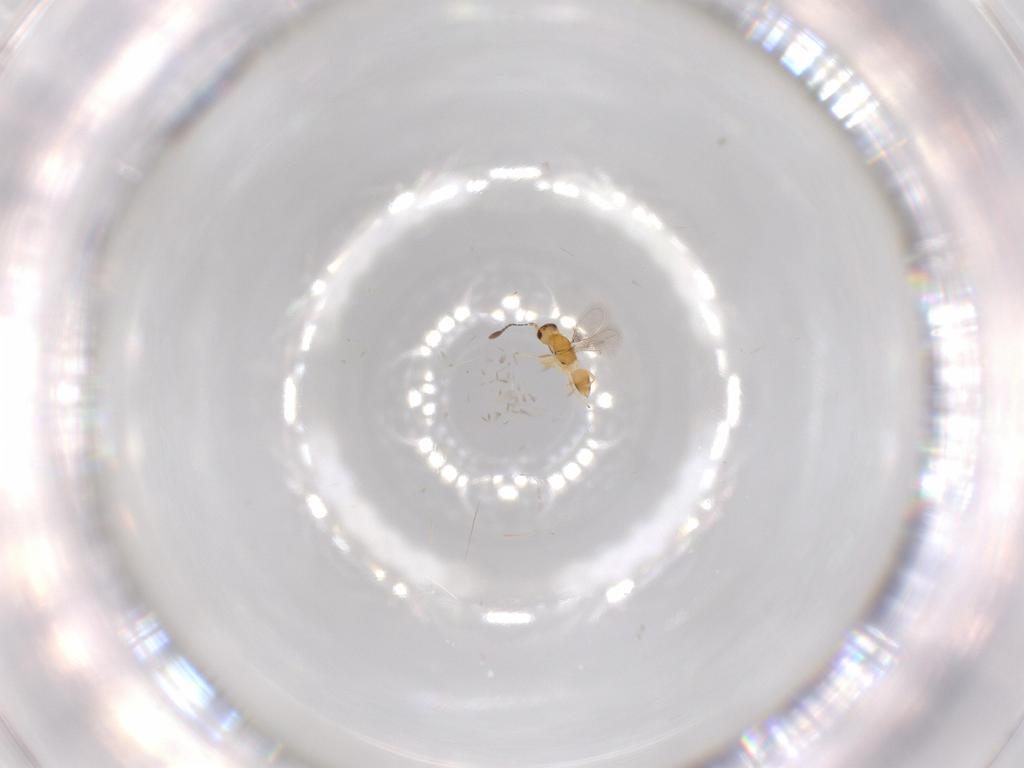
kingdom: Animalia
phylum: Arthropoda
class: Insecta
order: Hymenoptera
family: Mymaridae
